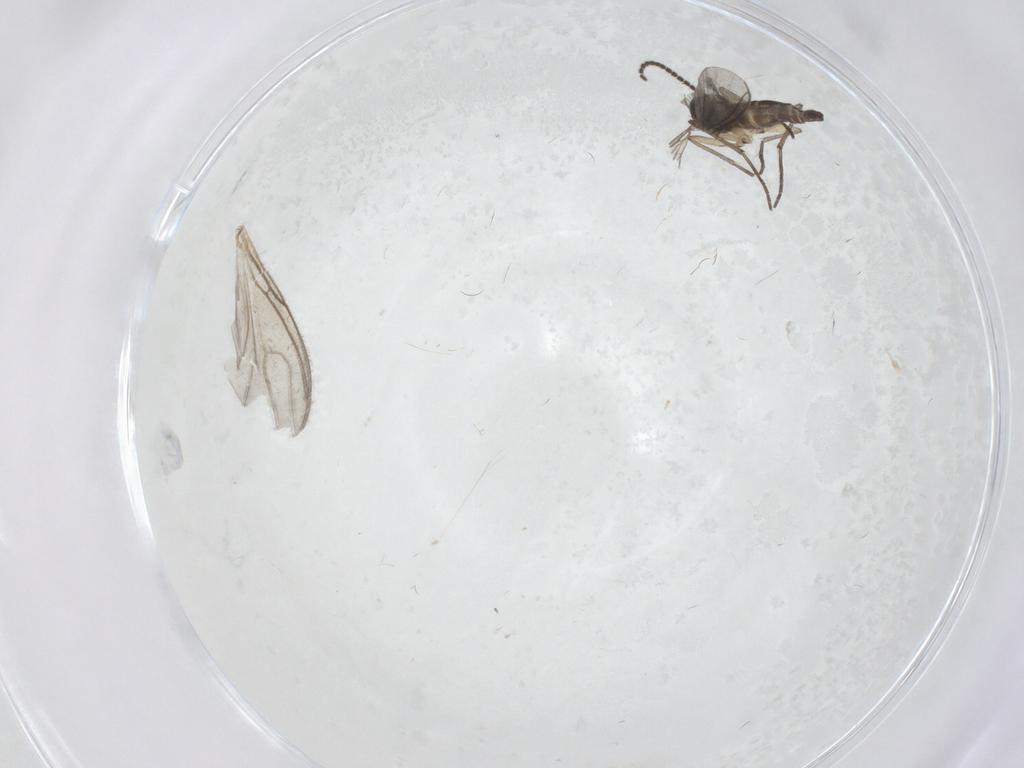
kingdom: Animalia
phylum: Arthropoda
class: Insecta
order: Diptera
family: Sciaridae
